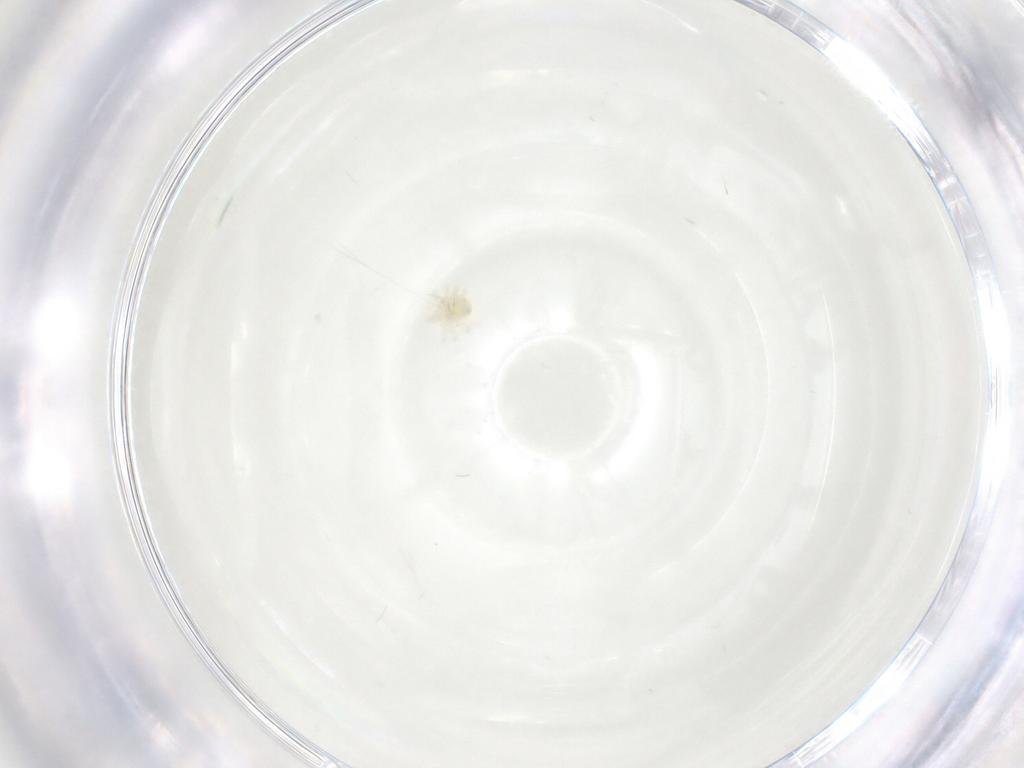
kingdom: Animalia
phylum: Arthropoda
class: Arachnida
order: Trombidiformes
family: Anystidae
